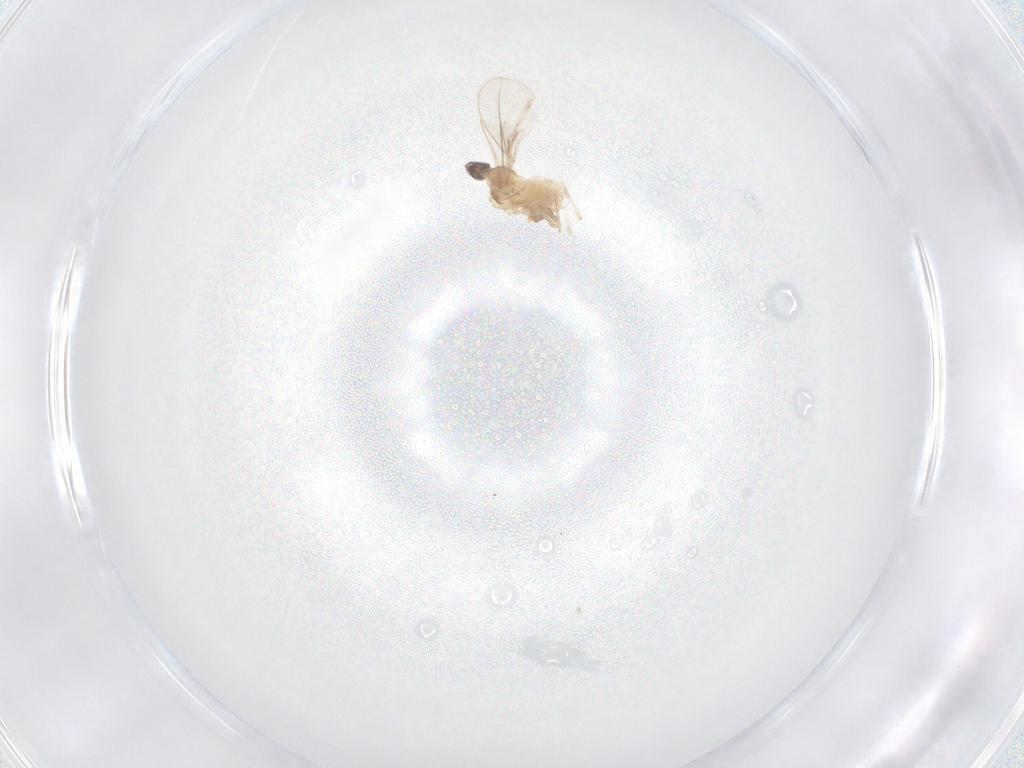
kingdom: Animalia
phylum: Arthropoda
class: Insecta
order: Diptera
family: Cecidomyiidae
